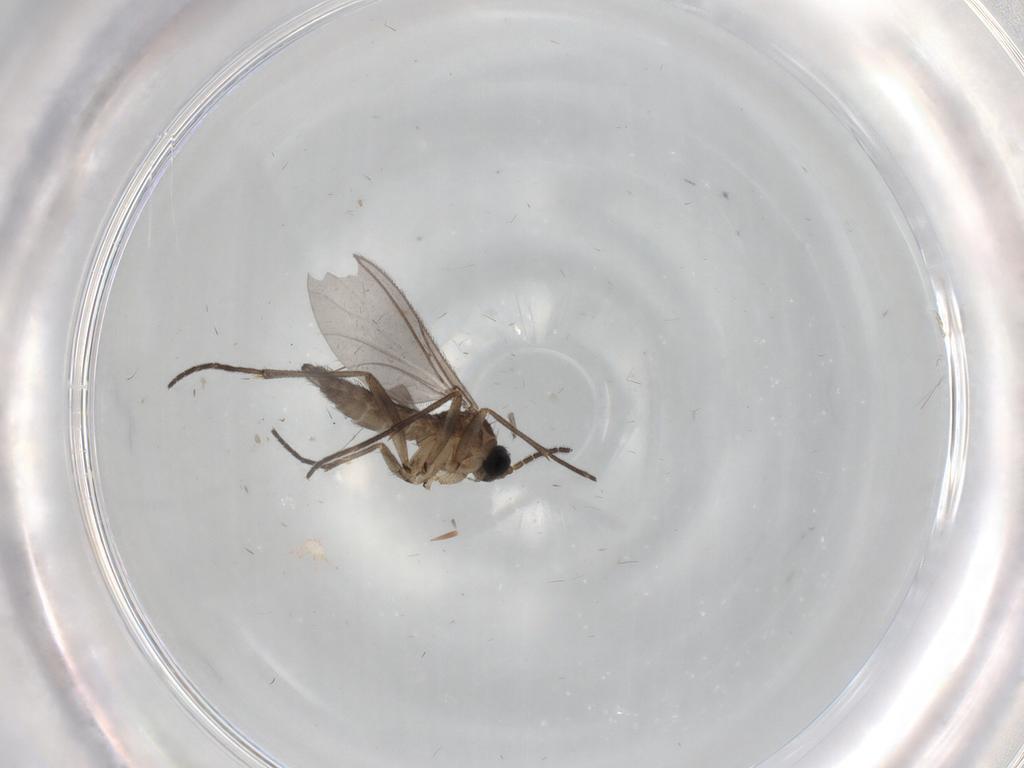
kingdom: Animalia
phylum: Arthropoda
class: Insecta
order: Diptera
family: Sciaridae
